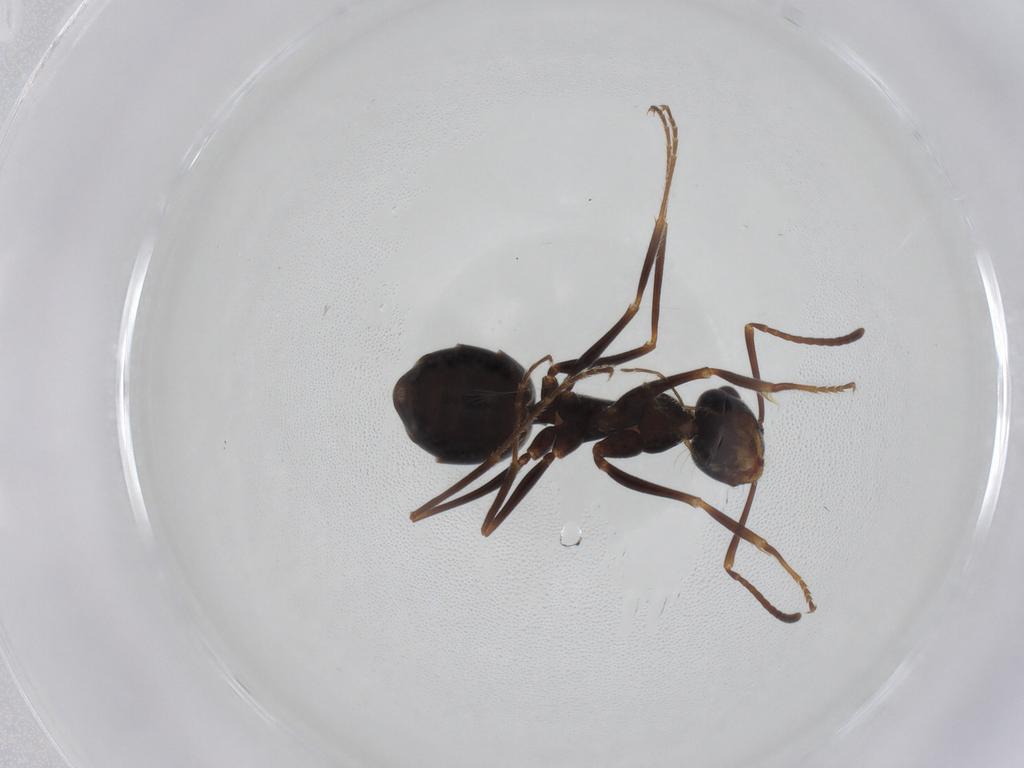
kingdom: Animalia
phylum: Arthropoda
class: Insecta
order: Hymenoptera
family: Formicidae
